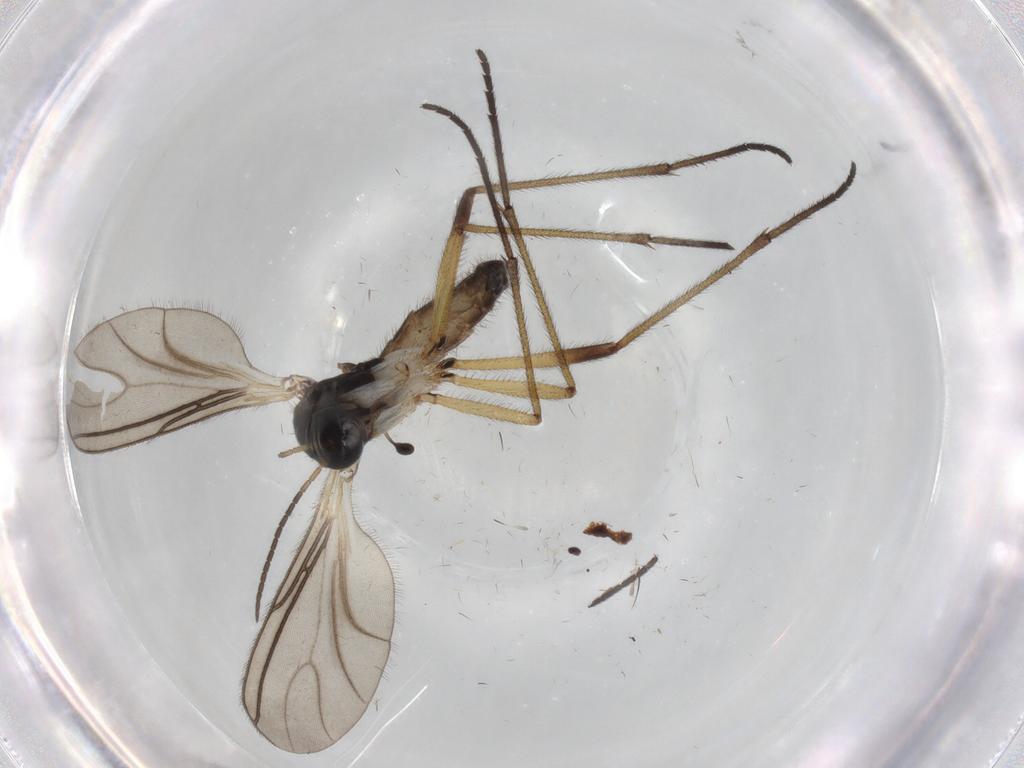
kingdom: Animalia
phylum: Arthropoda
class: Insecta
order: Diptera
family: Sciaridae
